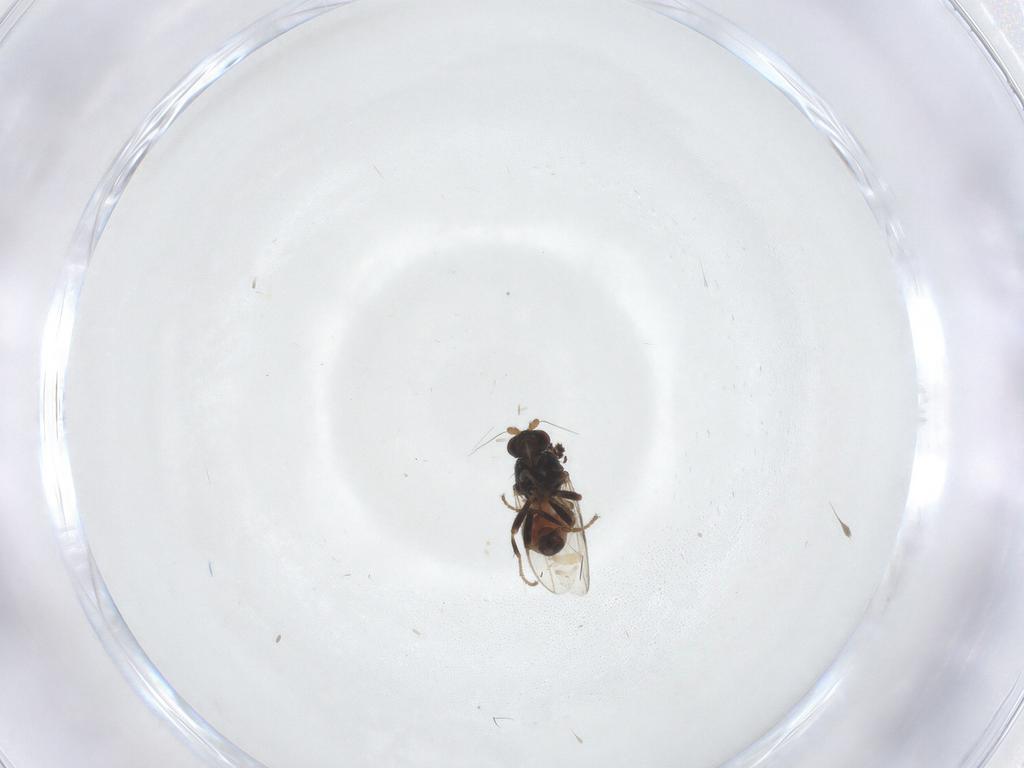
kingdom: Animalia
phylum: Arthropoda
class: Insecta
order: Diptera
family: Sphaeroceridae
